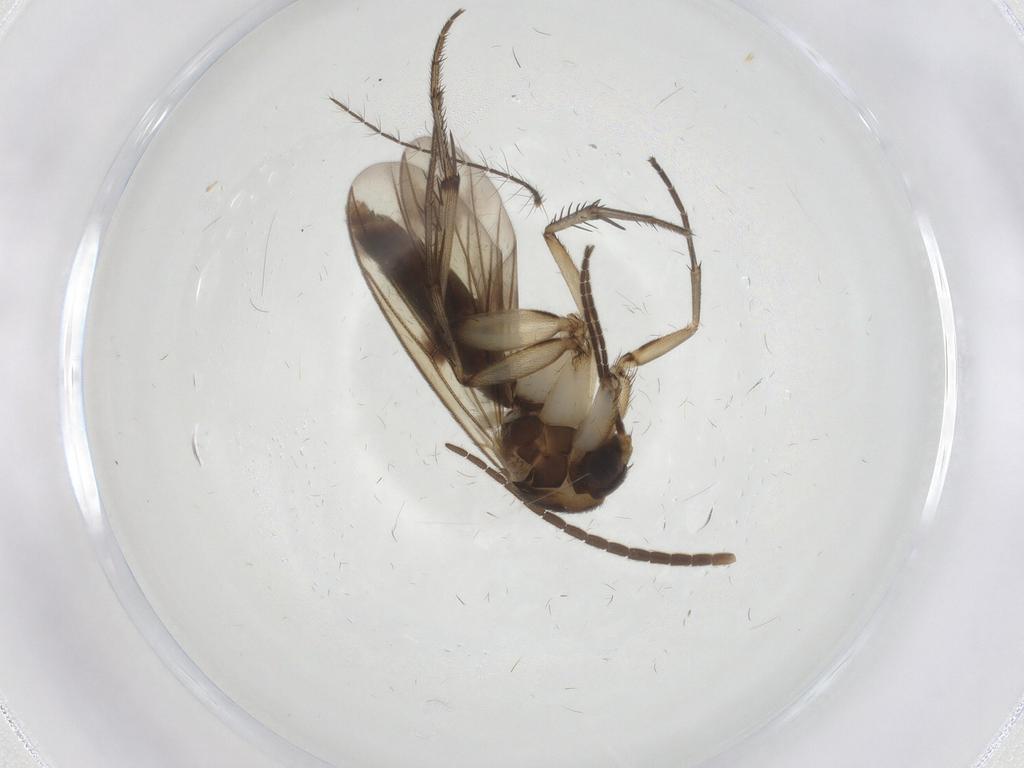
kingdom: Animalia
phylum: Arthropoda
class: Insecta
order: Diptera
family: Mycetophilidae
